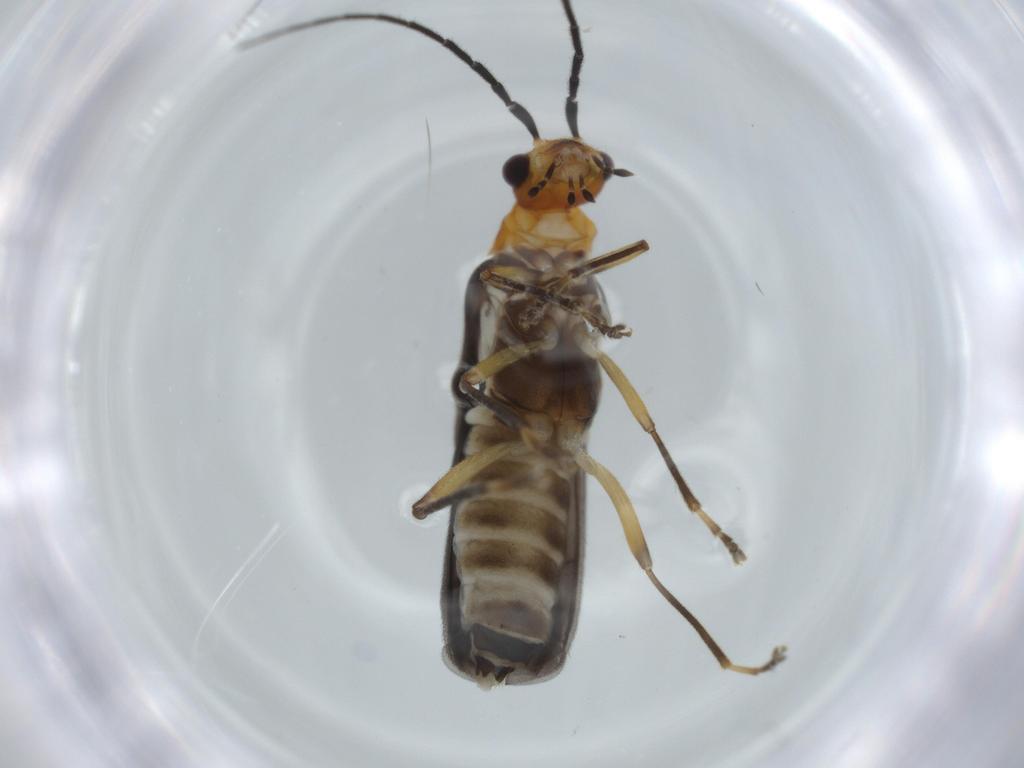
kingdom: Animalia
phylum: Arthropoda
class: Insecta
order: Coleoptera
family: Cantharidae
